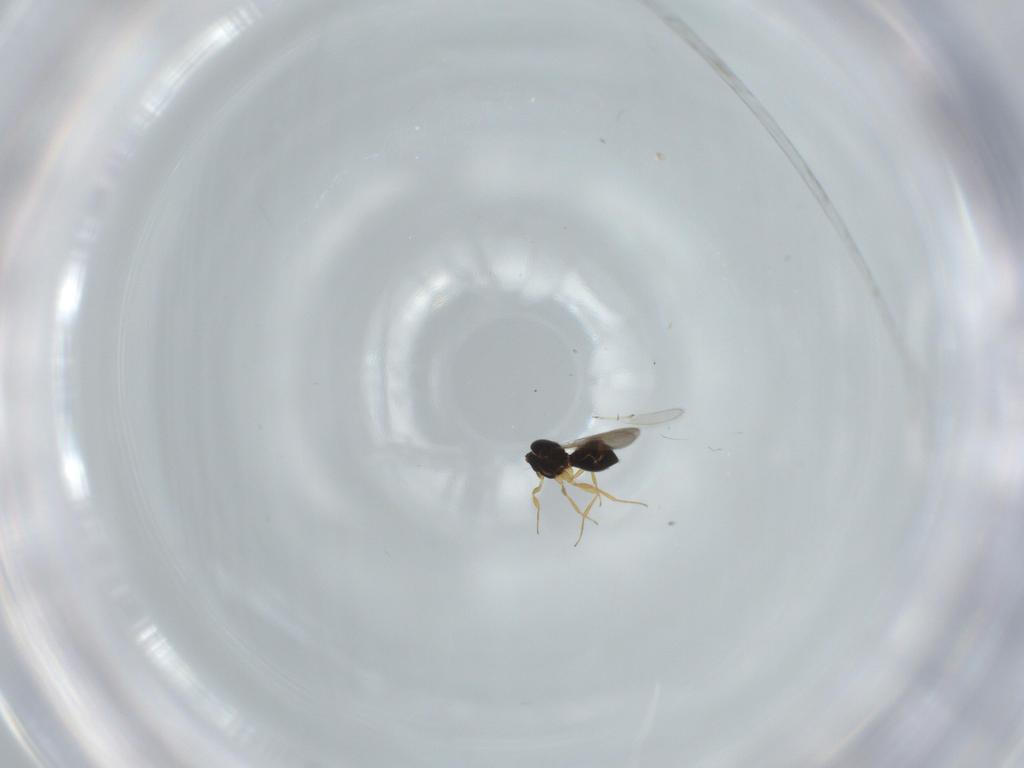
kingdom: Animalia
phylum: Arthropoda
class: Insecta
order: Hymenoptera
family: Scelionidae
